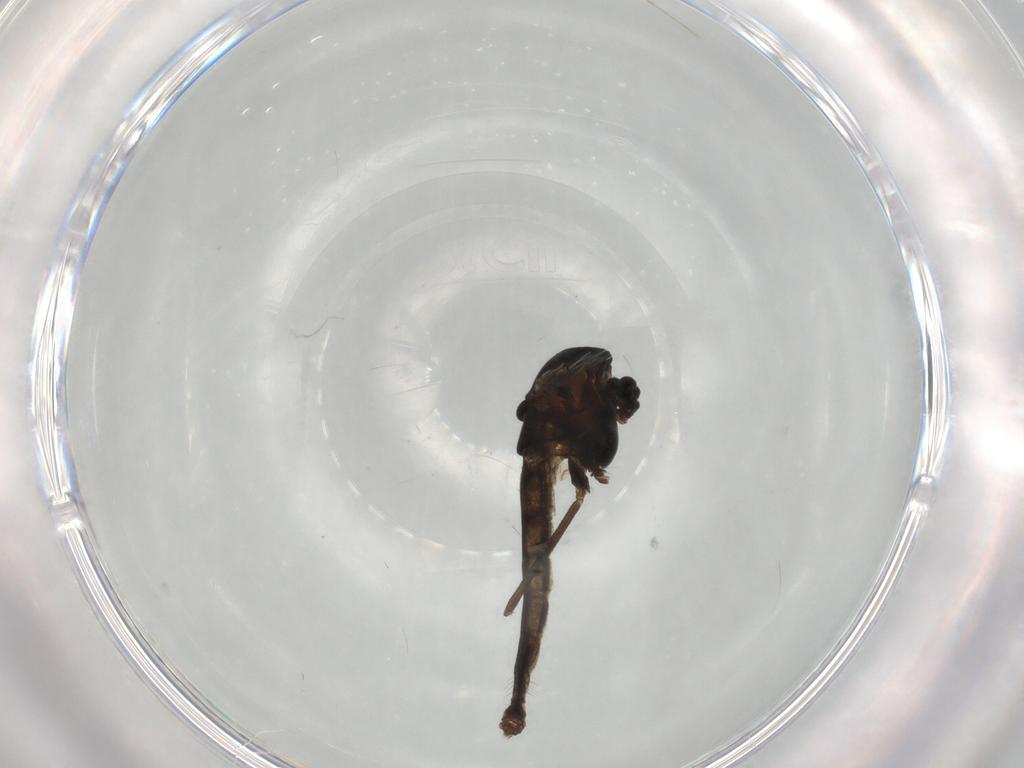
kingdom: Animalia
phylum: Arthropoda
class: Insecta
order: Diptera
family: Chironomidae
